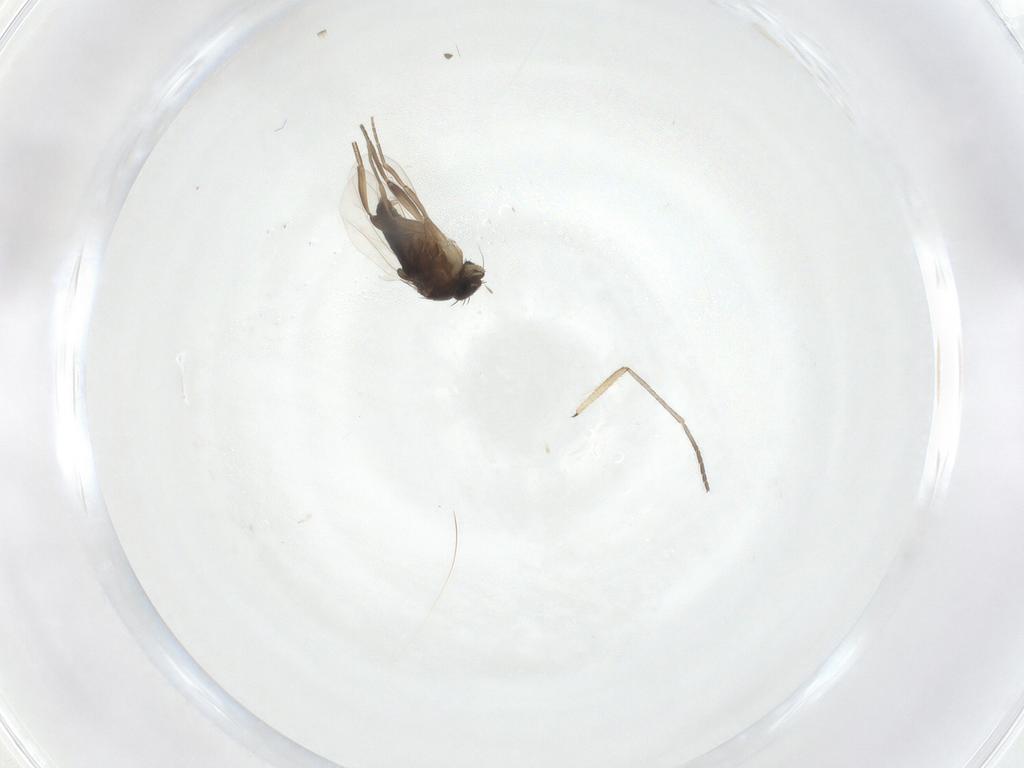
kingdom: Animalia
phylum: Arthropoda
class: Insecta
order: Diptera
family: Phoridae
